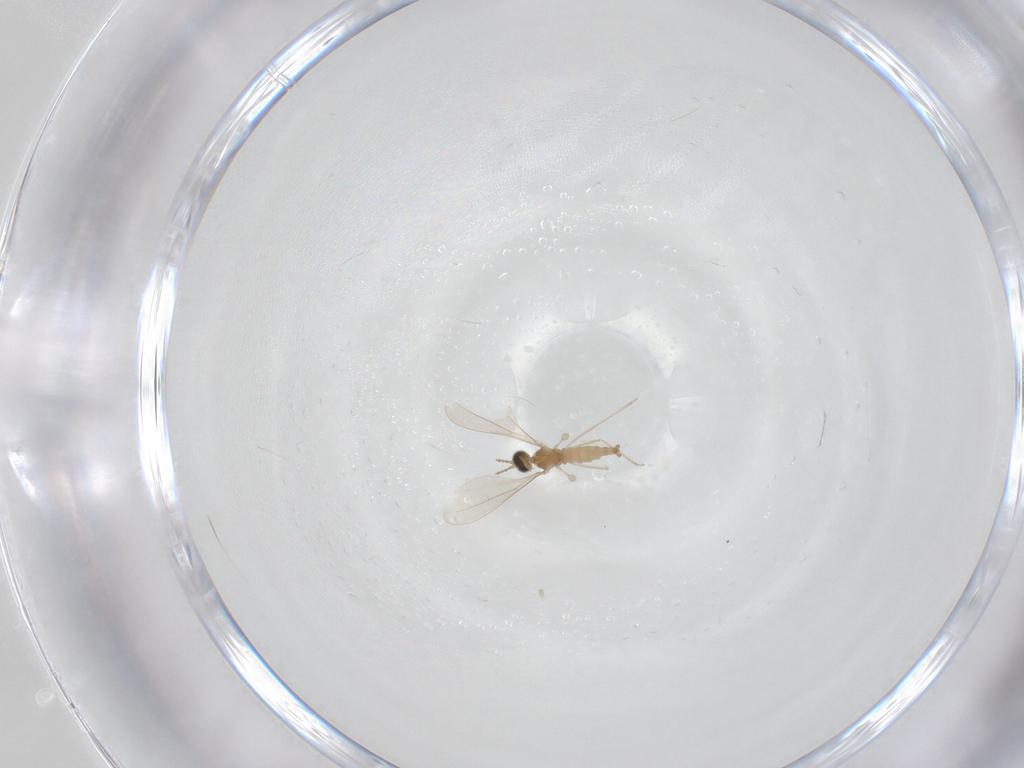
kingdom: Animalia
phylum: Arthropoda
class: Insecta
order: Diptera
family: Cecidomyiidae
